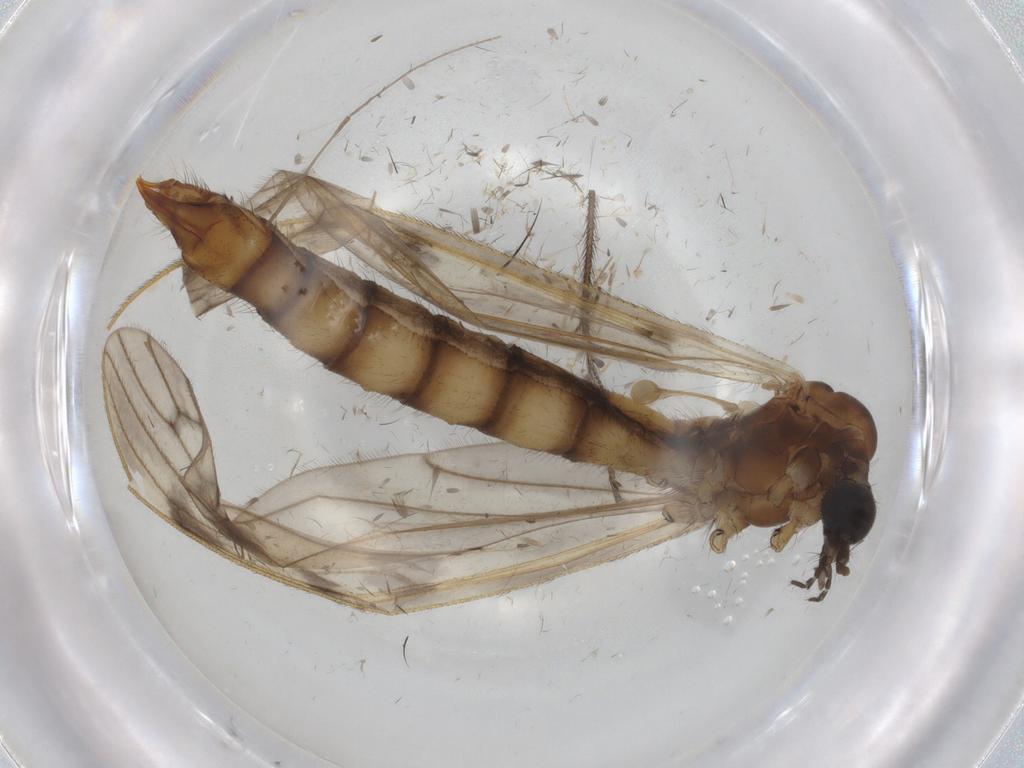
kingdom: Animalia
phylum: Arthropoda
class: Insecta
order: Diptera
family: Limoniidae
